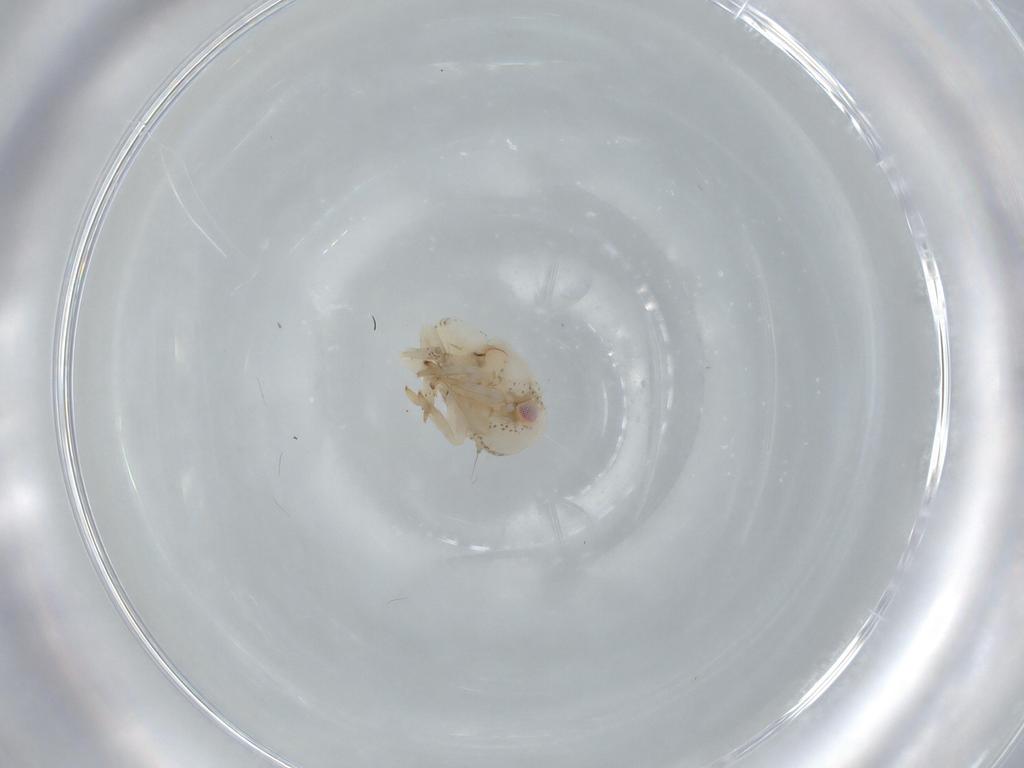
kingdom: Animalia
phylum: Arthropoda
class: Insecta
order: Hemiptera
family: Acanaloniidae
